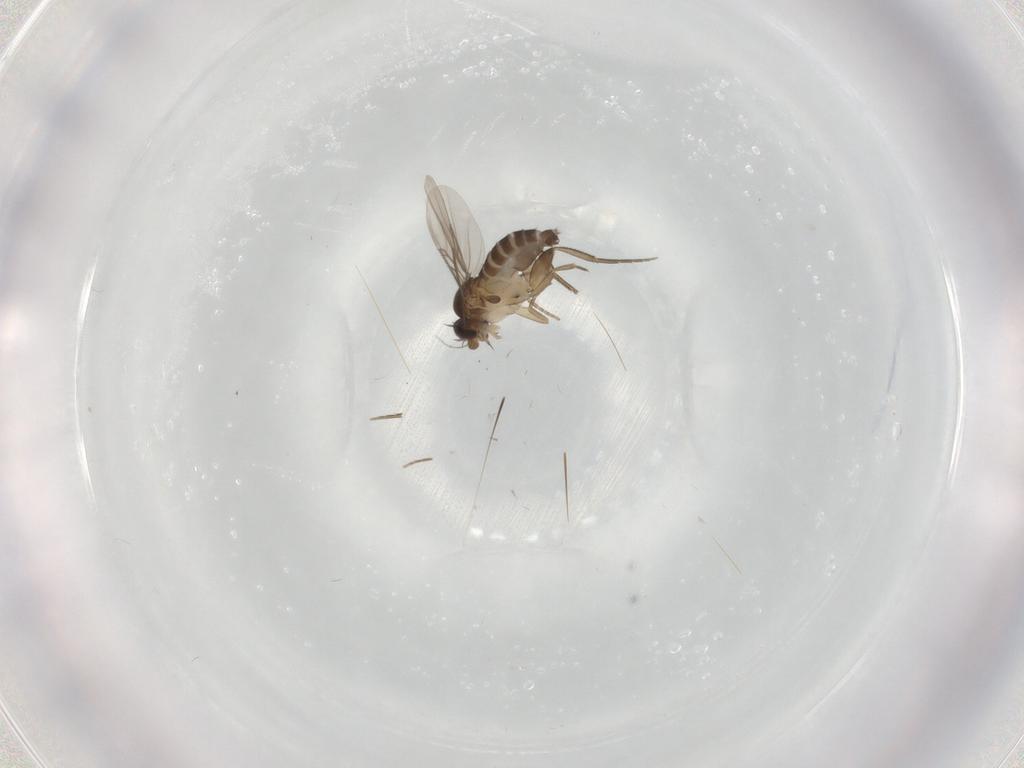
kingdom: Animalia
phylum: Arthropoda
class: Insecta
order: Diptera
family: Phoridae
